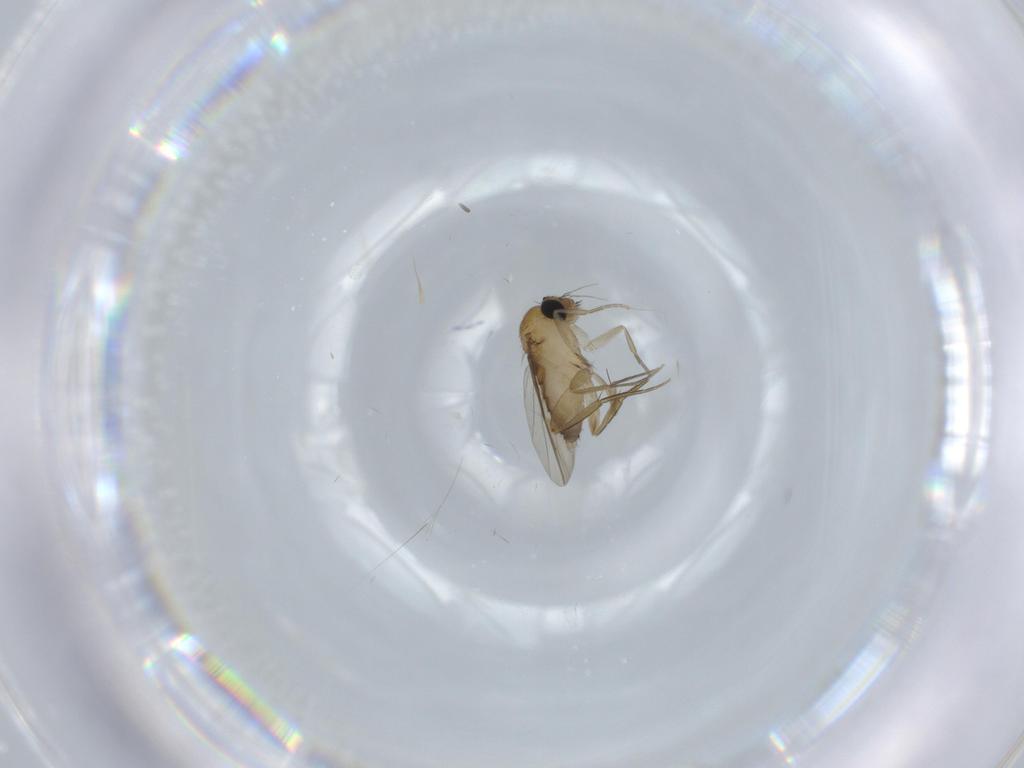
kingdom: Animalia
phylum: Arthropoda
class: Insecta
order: Diptera
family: Phoridae
